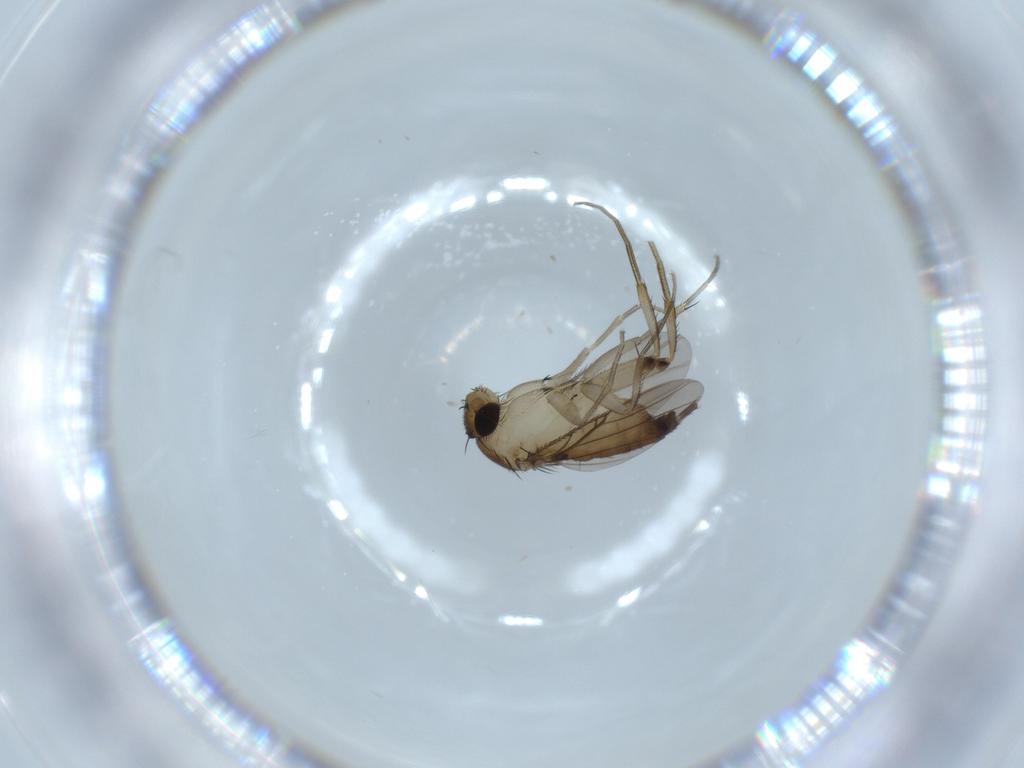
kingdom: Animalia
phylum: Arthropoda
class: Insecta
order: Diptera
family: Phoridae
